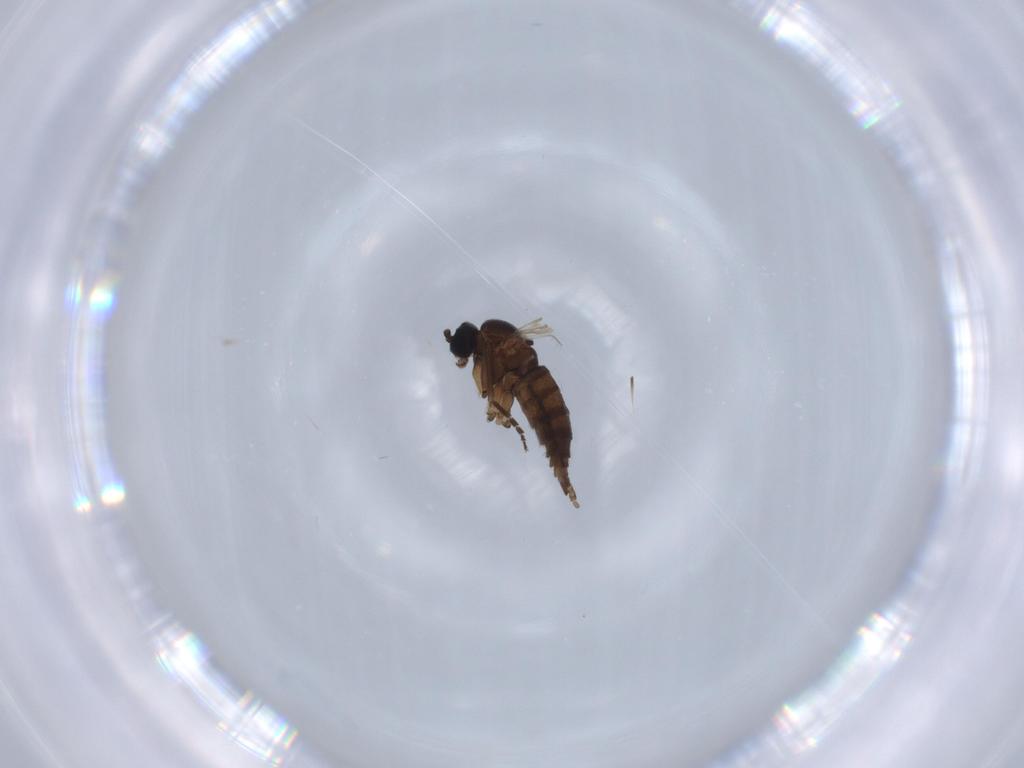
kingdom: Animalia
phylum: Arthropoda
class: Insecta
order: Diptera
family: Sciaridae
